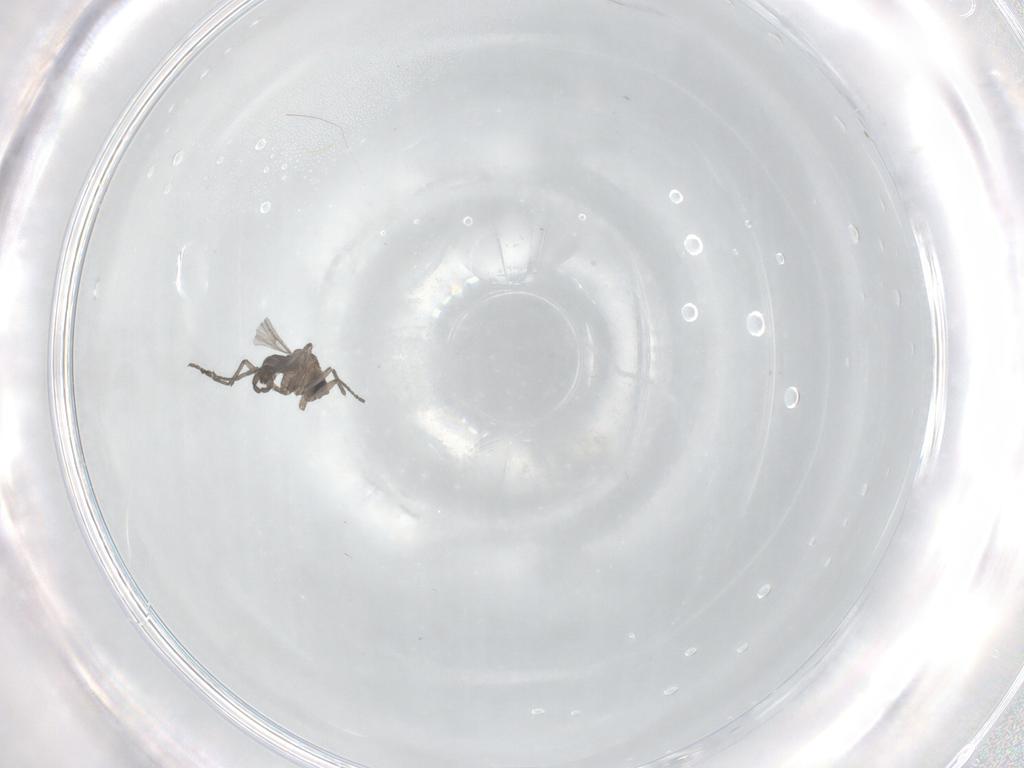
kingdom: Animalia
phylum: Arthropoda
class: Insecta
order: Diptera
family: Sciaridae
